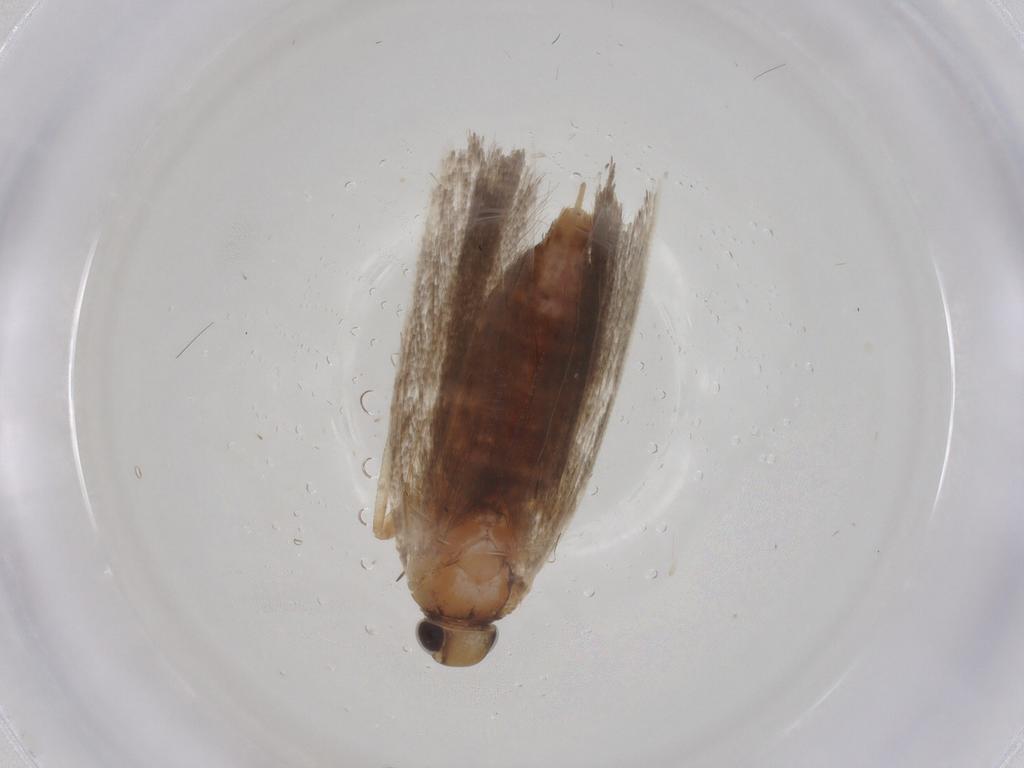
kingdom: Animalia
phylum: Arthropoda
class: Insecta
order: Lepidoptera
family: Gelechiidae
